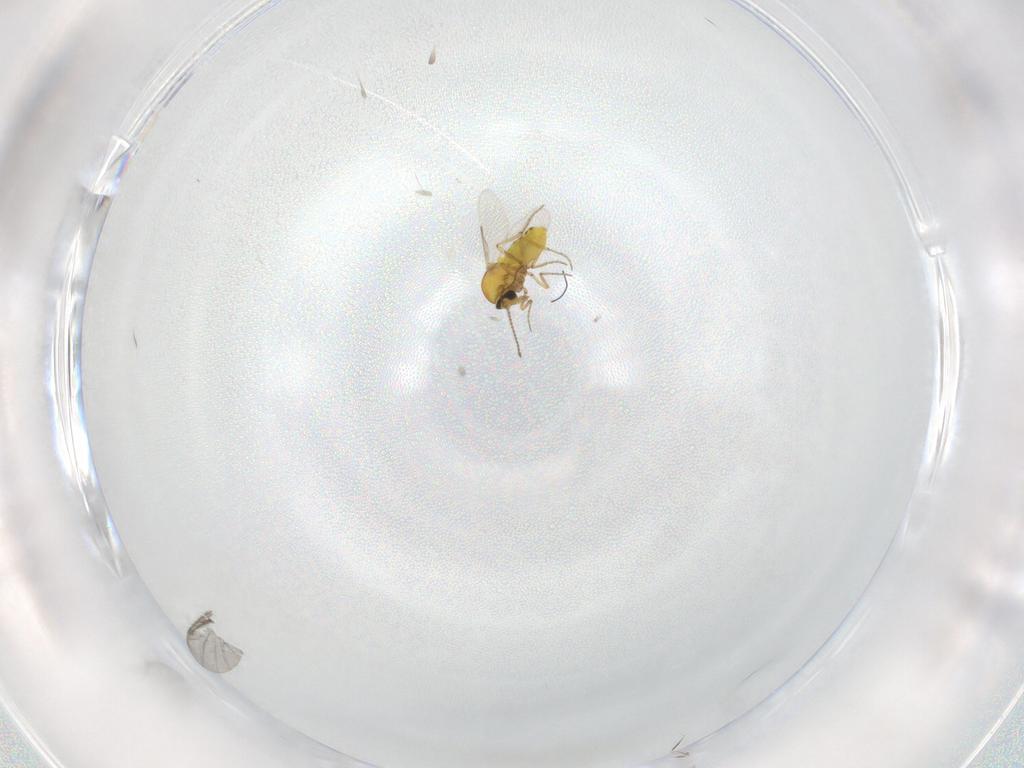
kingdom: Animalia
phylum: Arthropoda
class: Insecta
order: Diptera
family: Ceratopogonidae
